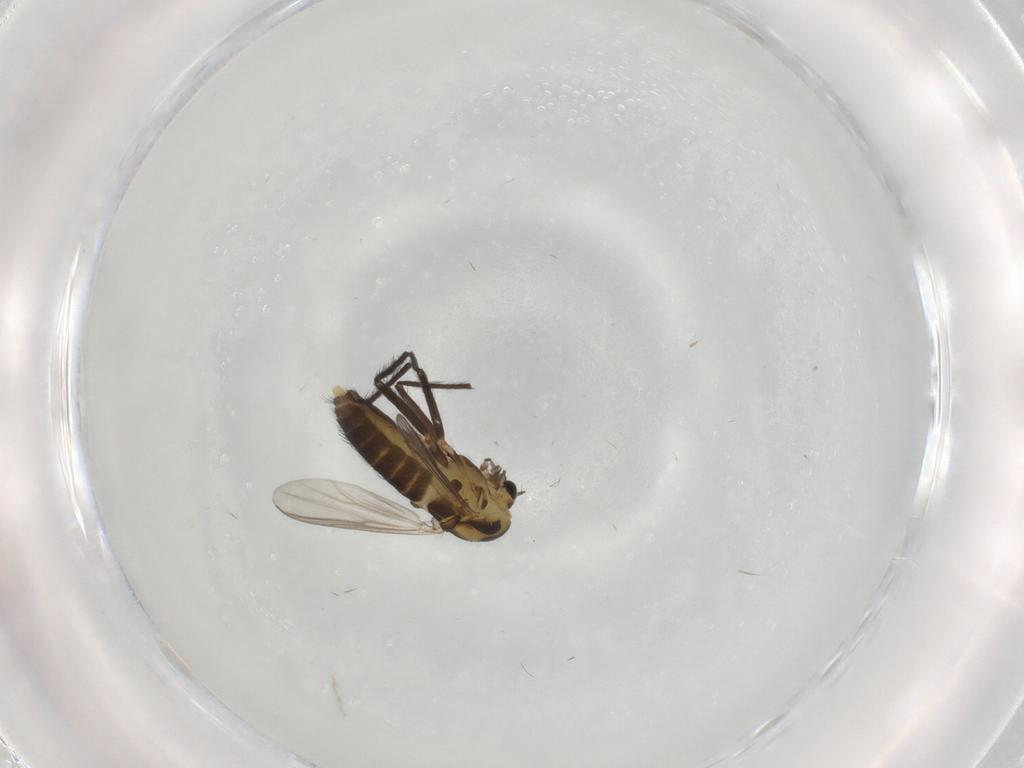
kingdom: Animalia
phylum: Arthropoda
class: Insecta
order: Diptera
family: Chironomidae
